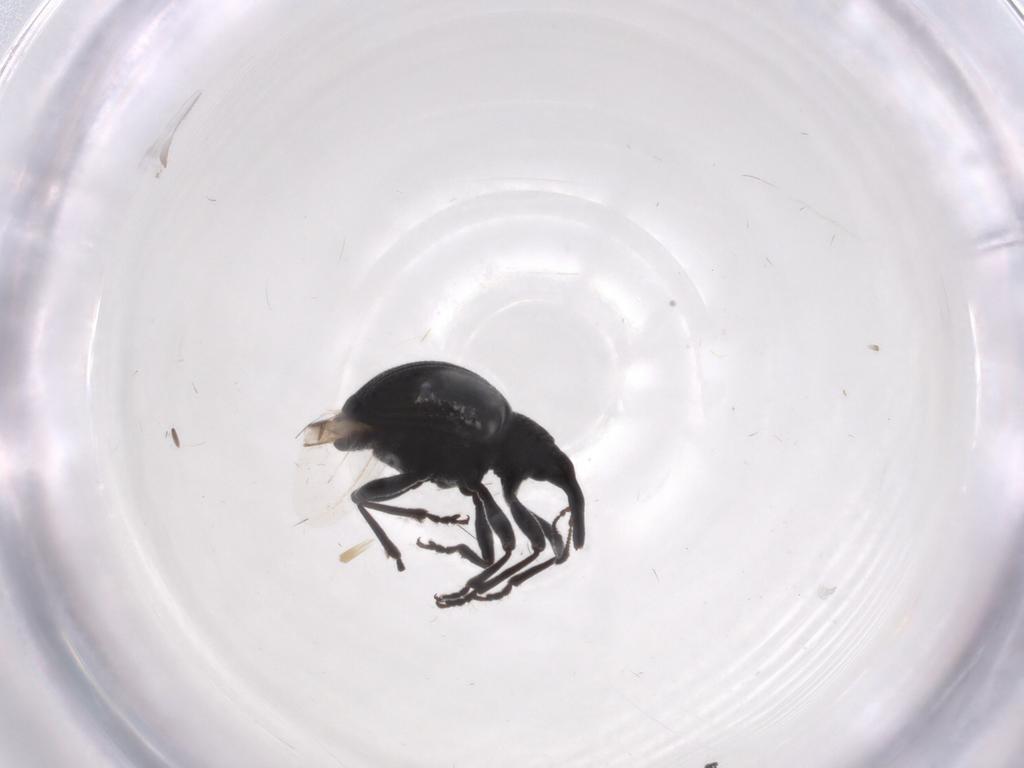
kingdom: Animalia
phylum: Arthropoda
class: Insecta
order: Coleoptera
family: Brentidae
